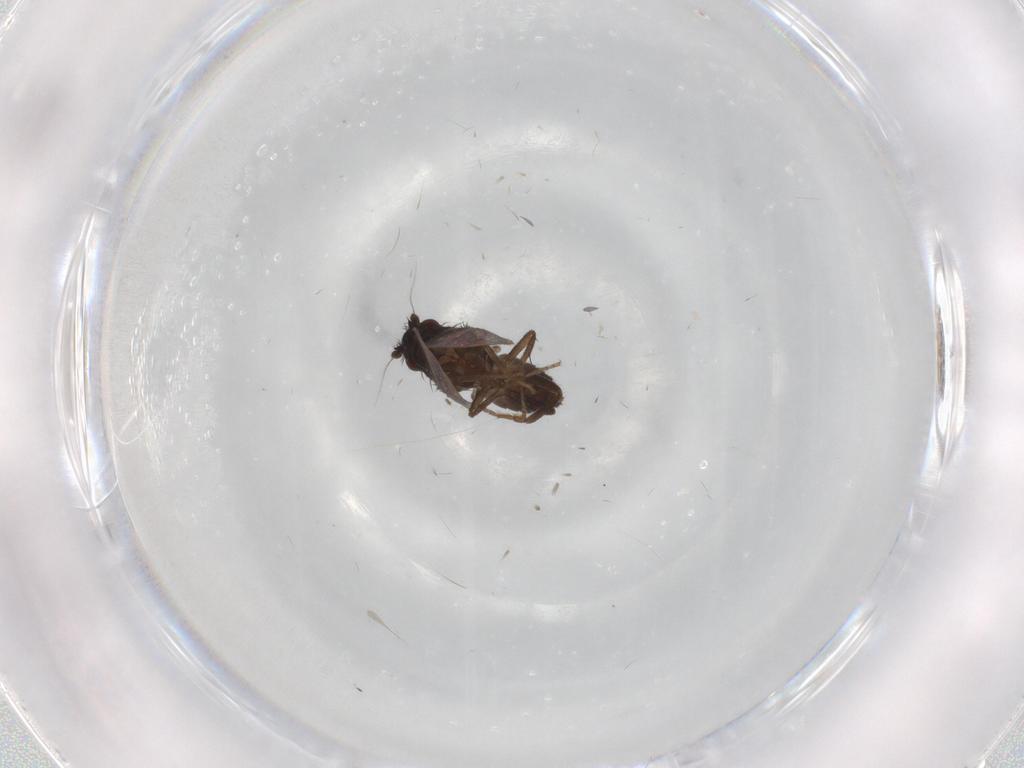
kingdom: Animalia
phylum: Arthropoda
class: Insecta
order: Diptera
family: Sphaeroceridae
